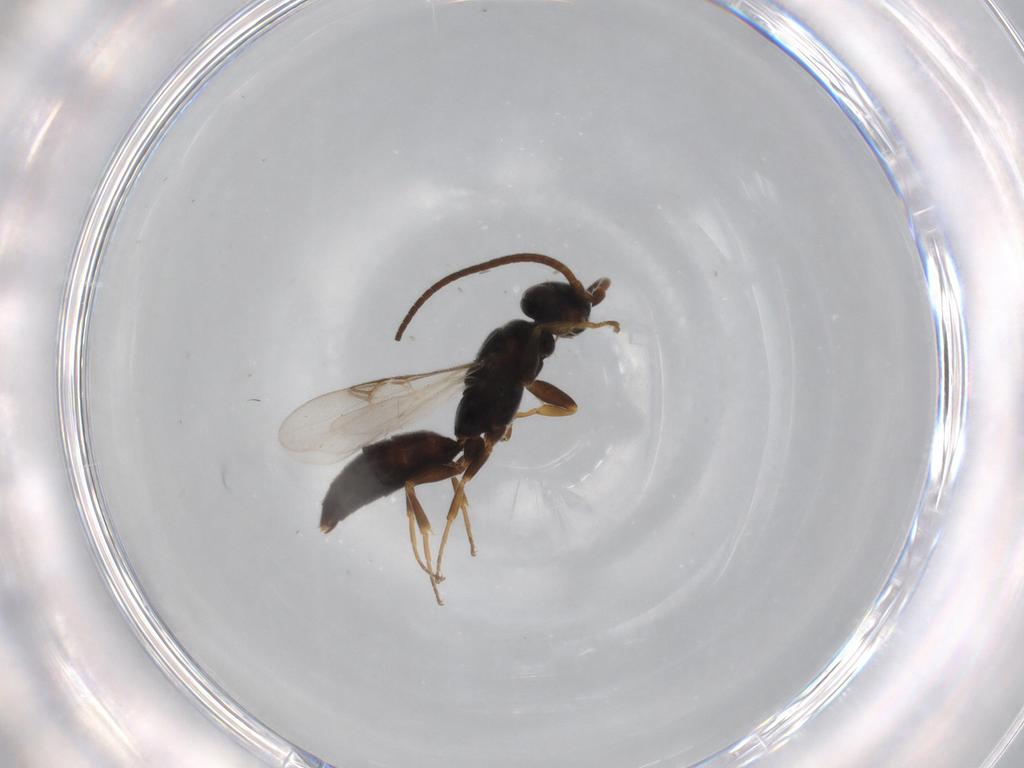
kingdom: Animalia
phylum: Arthropoda
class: Insecta
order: Hymenoptera
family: Sclerogibbidae
